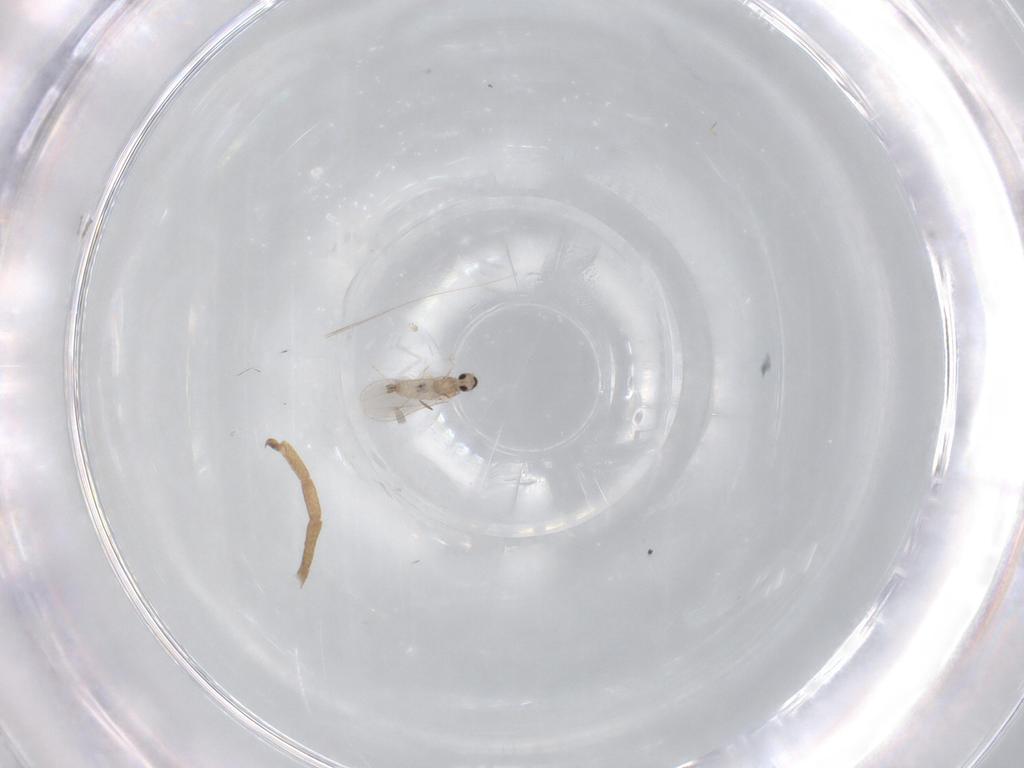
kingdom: Animalia
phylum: Arthropoda
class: Insecta
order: Diptera
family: Cecidomyiidae
